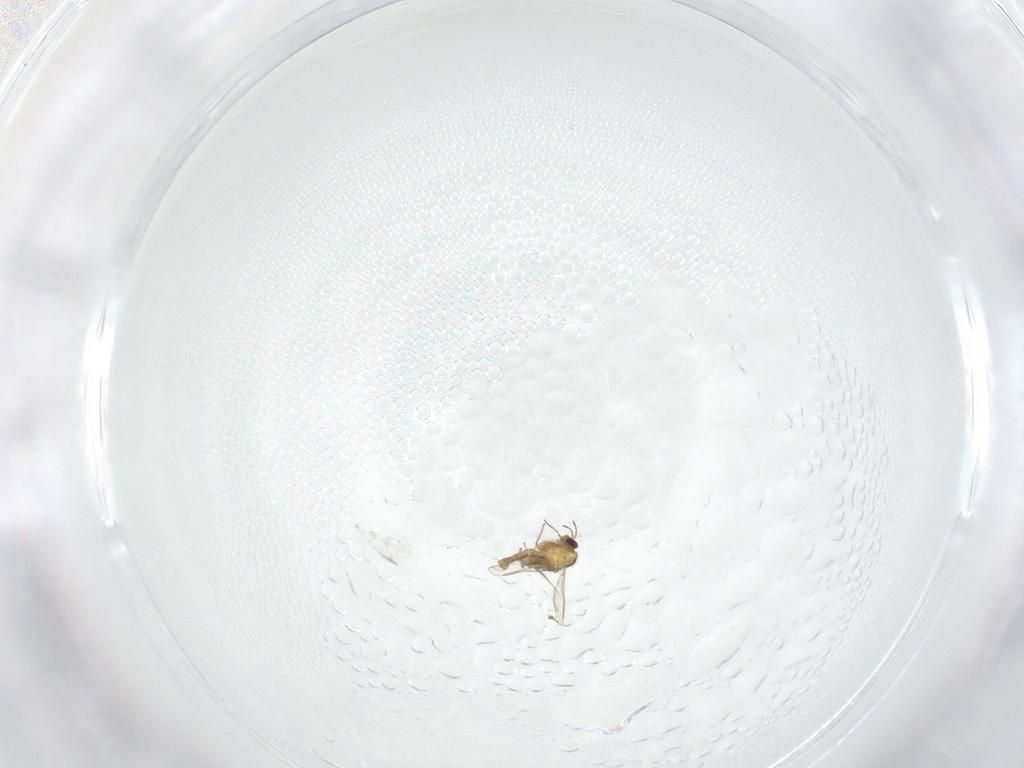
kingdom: Animalia
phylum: Arthropoda
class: Insecta
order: Diptera
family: Chironomidae
